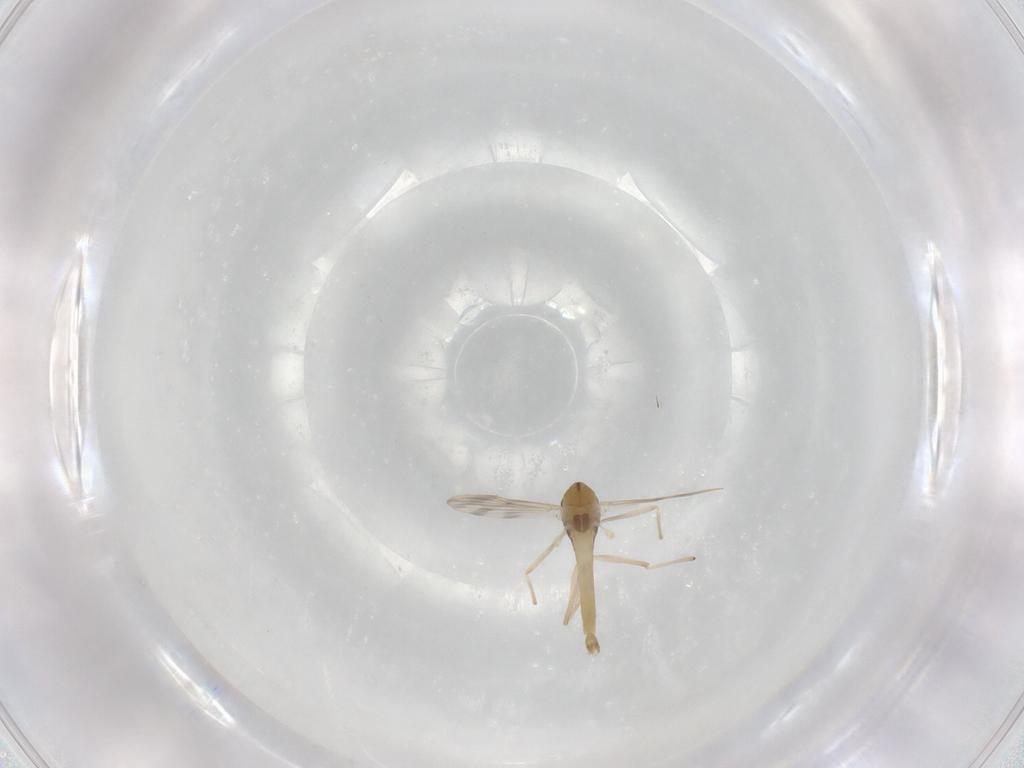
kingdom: Animalia
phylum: Arthropoda
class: Insecta
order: Diptera
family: Chironomidae
